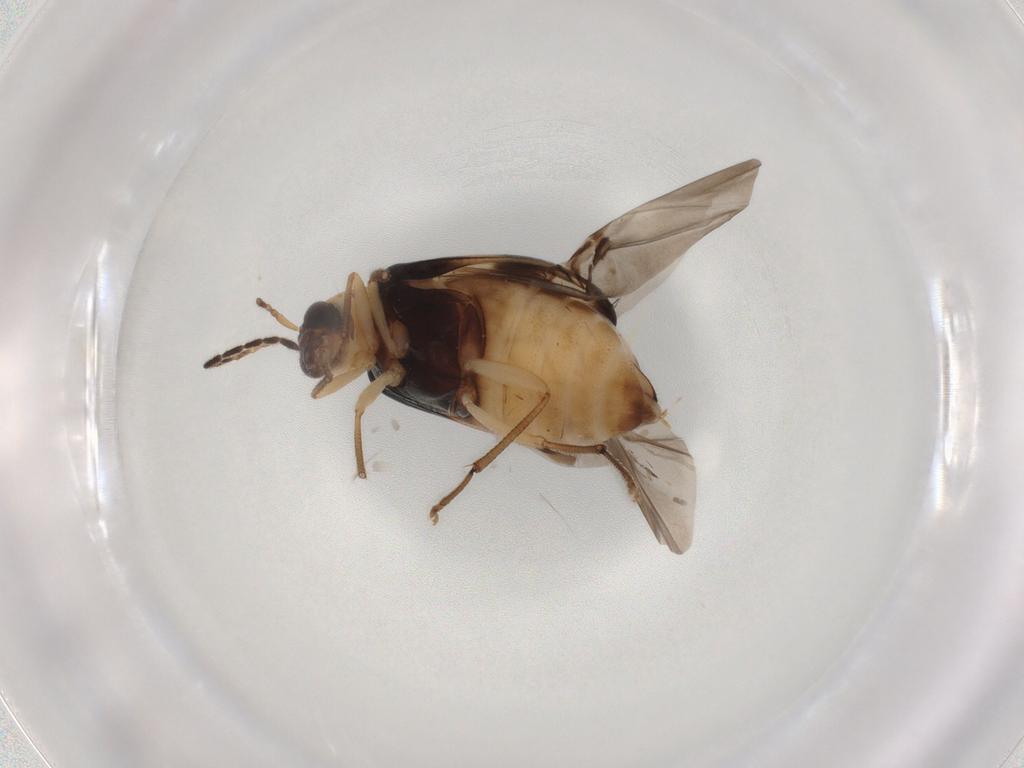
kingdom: Animalia
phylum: Arthropoda
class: Insecta
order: Coleoptera
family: Chrysomelidae
